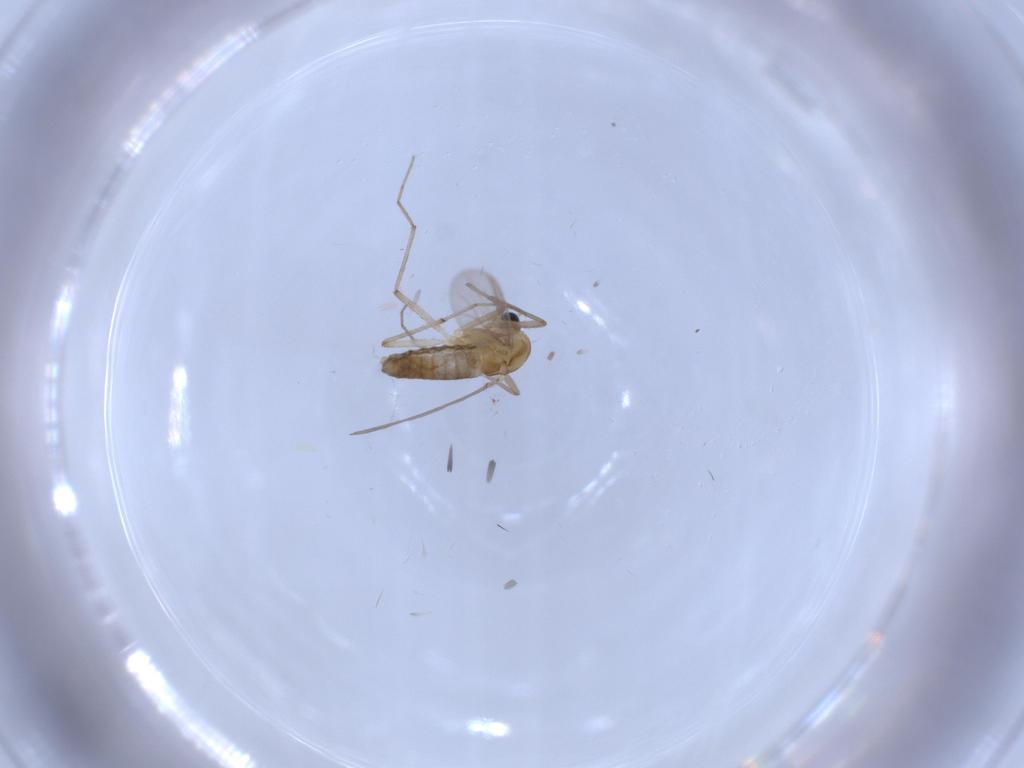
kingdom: Animalia
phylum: Arthropoda
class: Insecta
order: Diptera
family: Chironomidae
